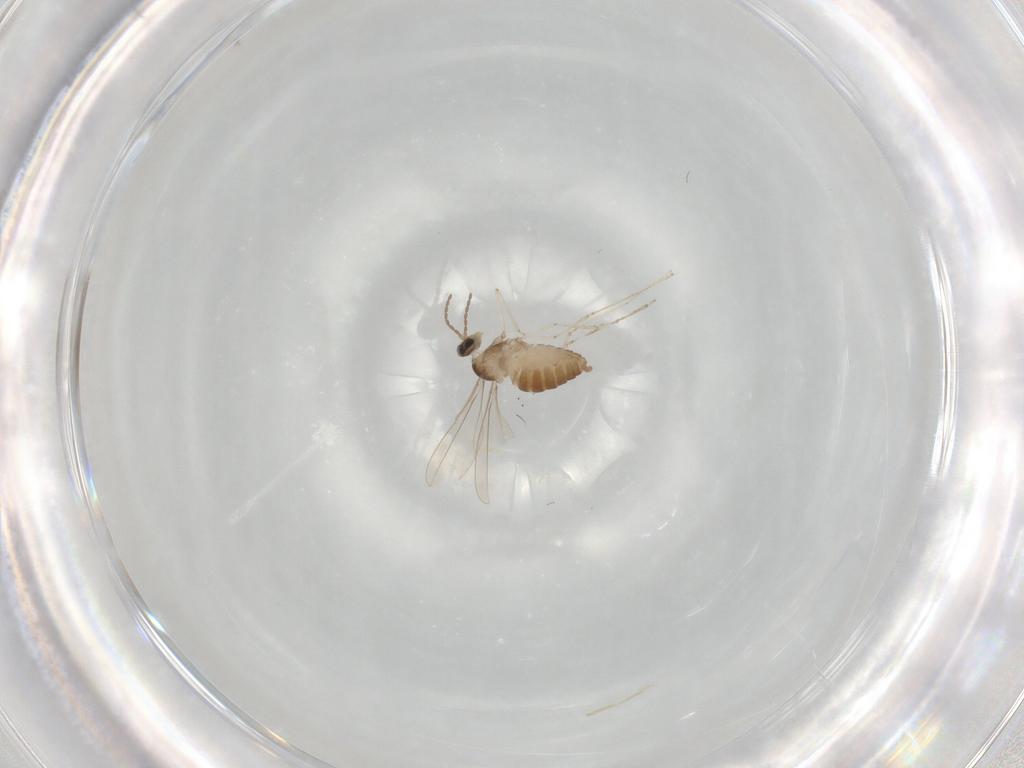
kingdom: Animalia
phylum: Arthropoda
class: Insecta
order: Diptera
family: Cecidomyiidae
